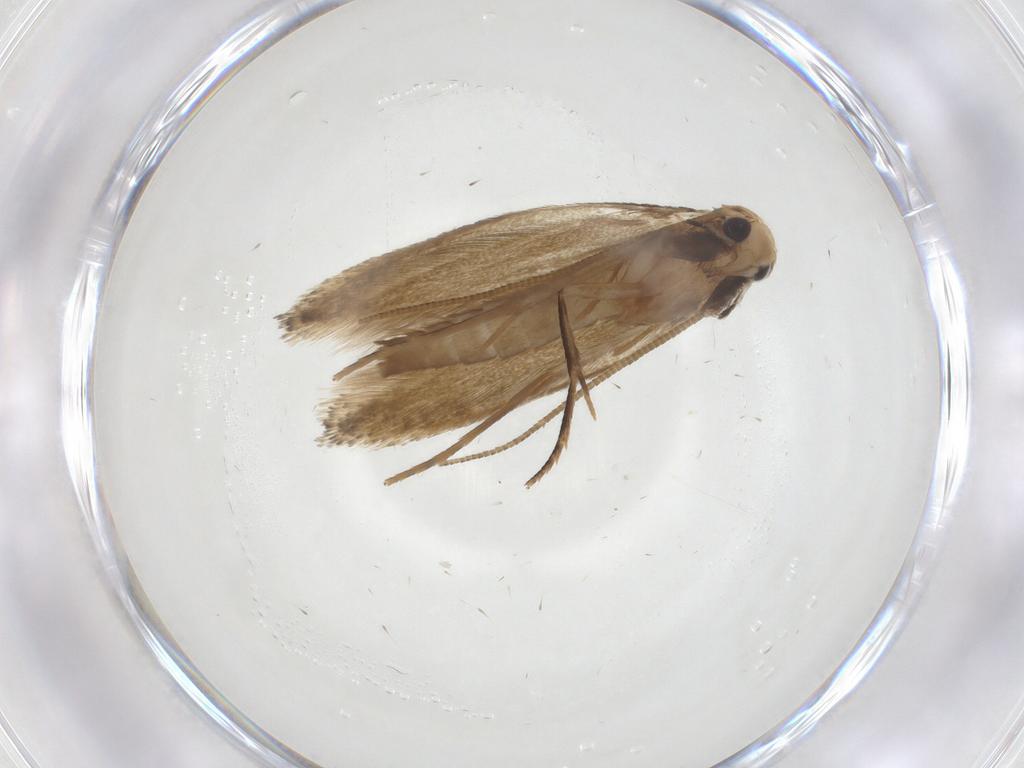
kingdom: Animalia
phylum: Arthropoda
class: Insecta
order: Lepidoptera
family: Tineidae
